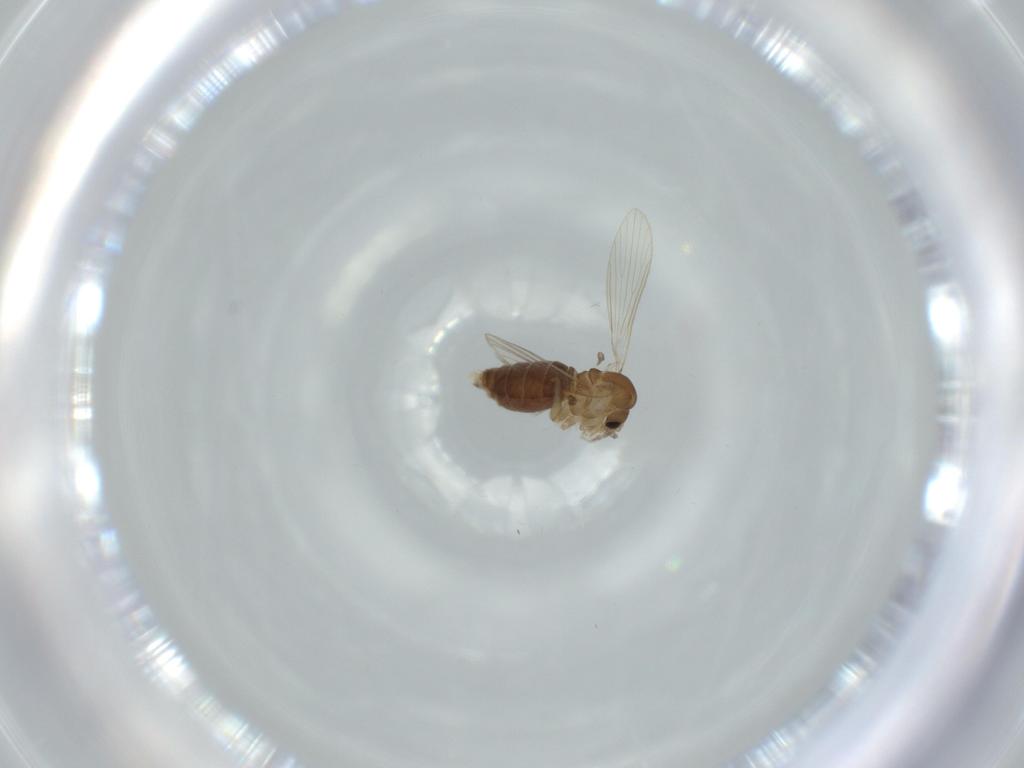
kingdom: Animalia
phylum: Arthropoda
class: Insecta
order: Diptera
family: Psychodidae
